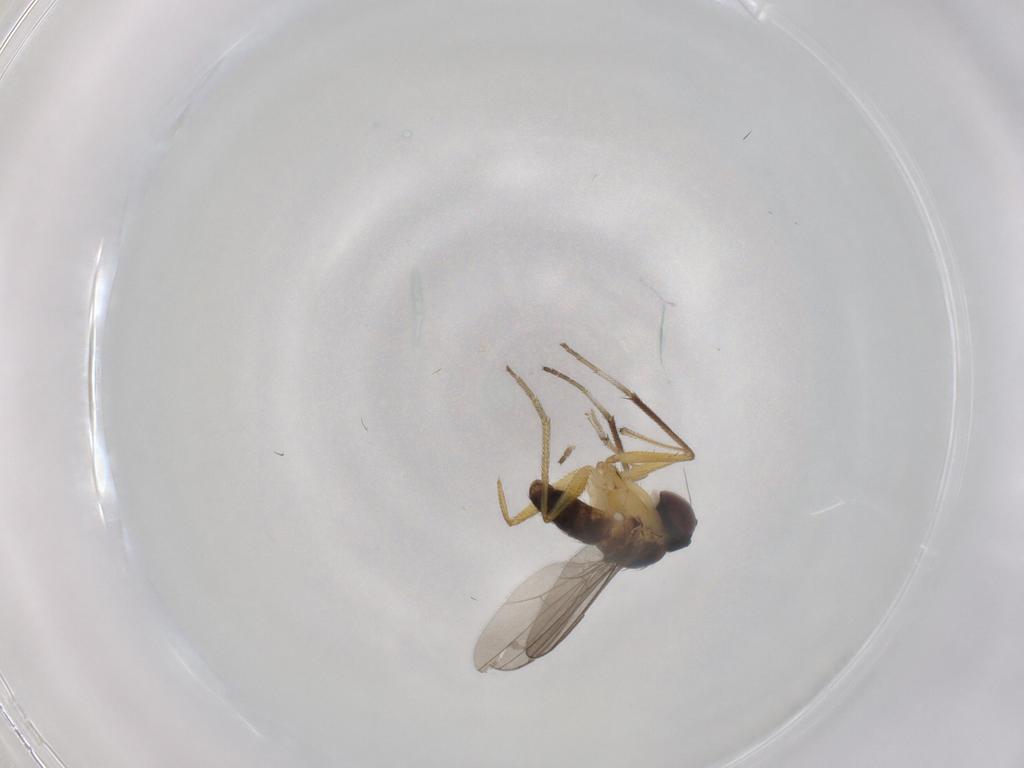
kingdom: Animalia
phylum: Arthropoda
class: Insecta
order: Diptera
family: Dolichopodidae
